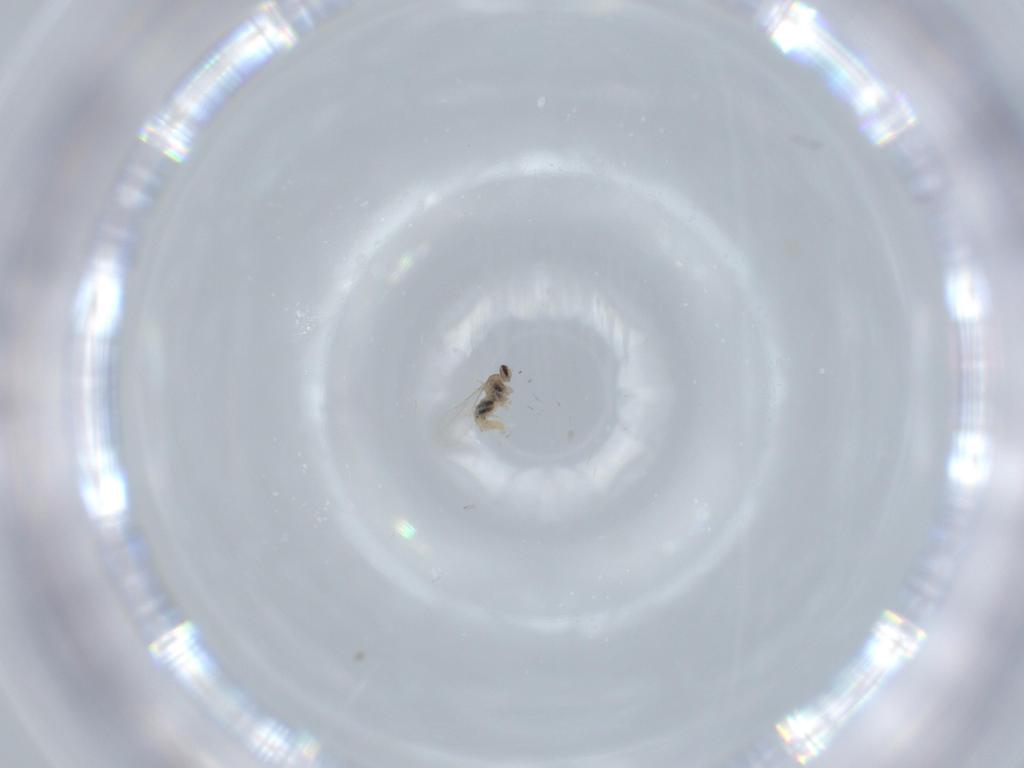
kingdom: Animalia
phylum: Arthropoda
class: Insecta
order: Diptera
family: Cecidomyiidae
